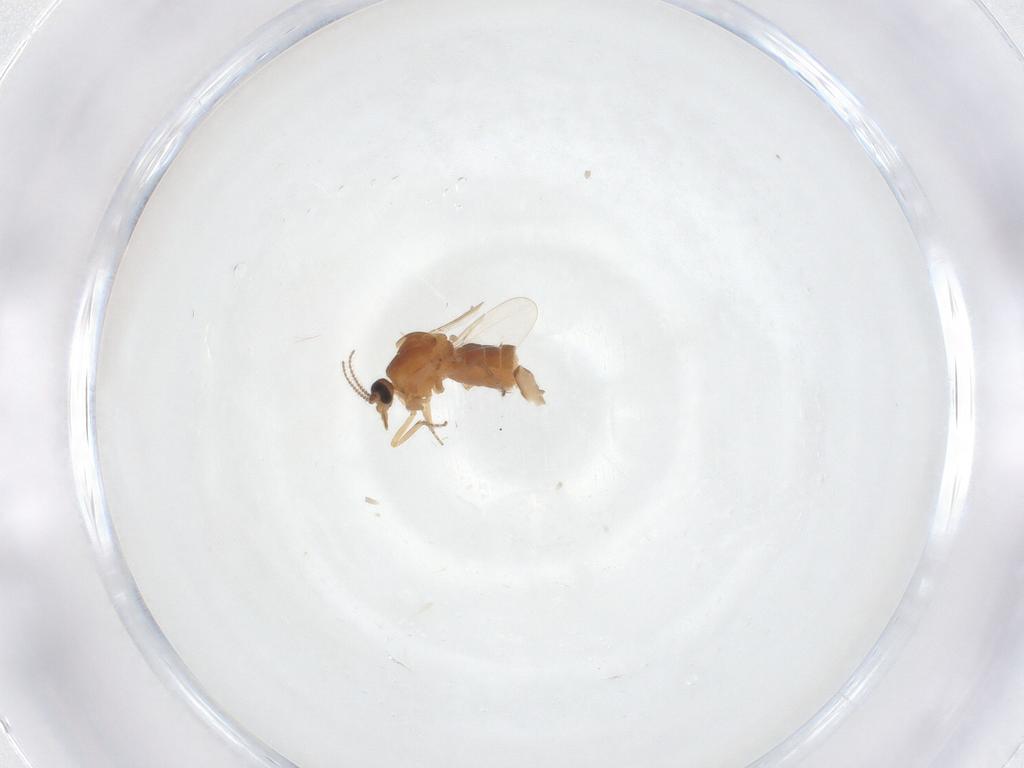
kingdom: Animalia
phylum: Arthropoda
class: Insecta
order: Diptera
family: Ceratopogonidae
